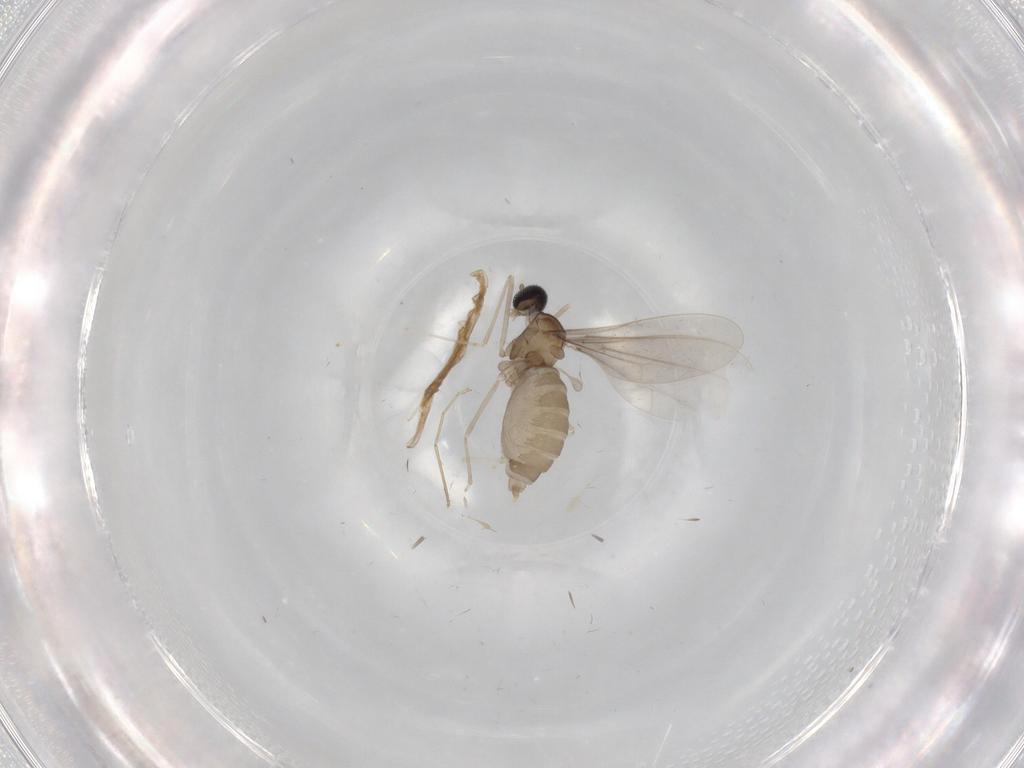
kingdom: Animalia
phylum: Arthropoda
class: Insecta
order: Diptera
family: Cecidomyiidae
